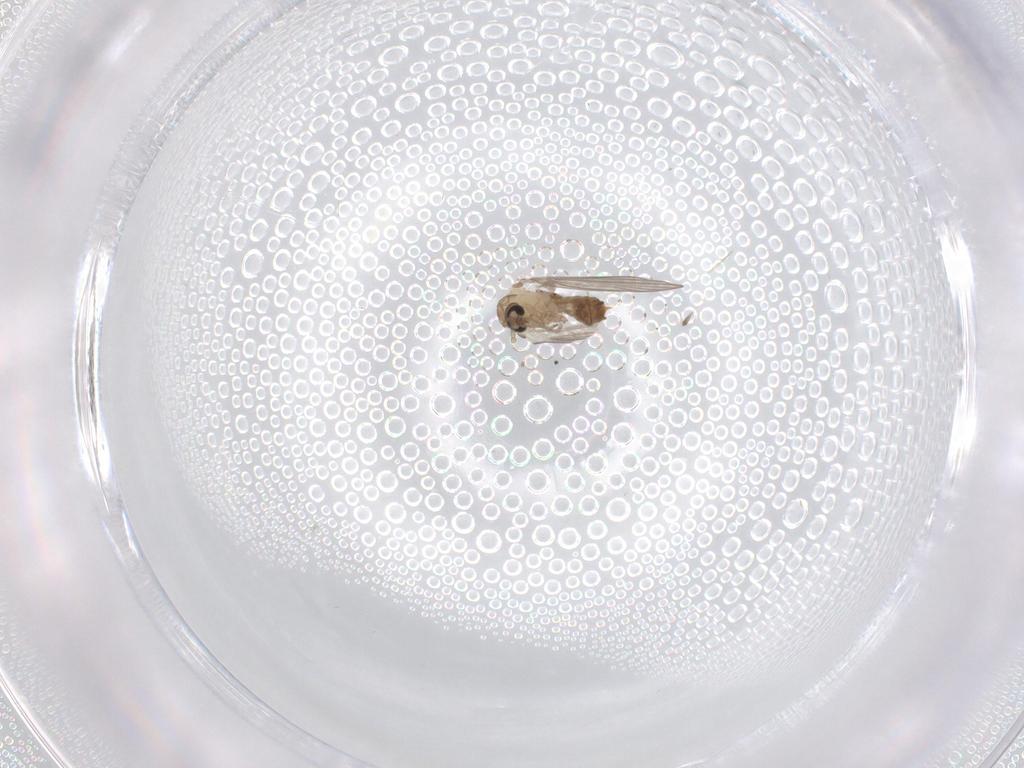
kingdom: Animalia
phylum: Arthropoda
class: Insecta
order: Diptera
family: Psychodidae
